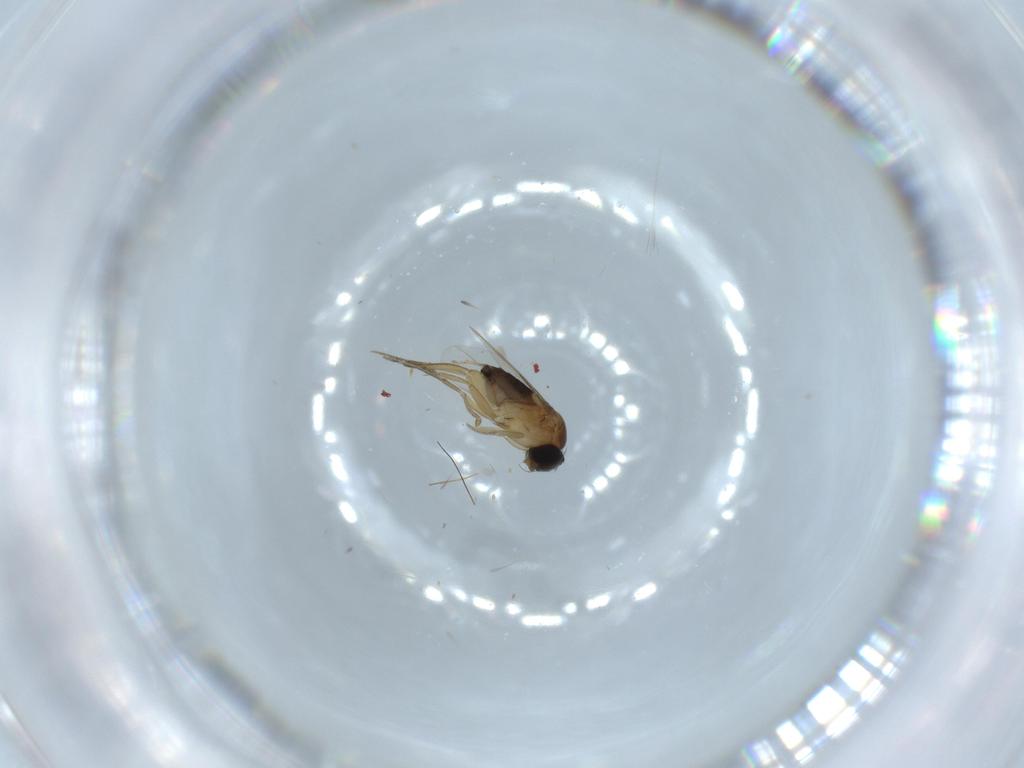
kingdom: Animalia
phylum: Arthropoda
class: Insecta
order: Diptera
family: Phoridae
